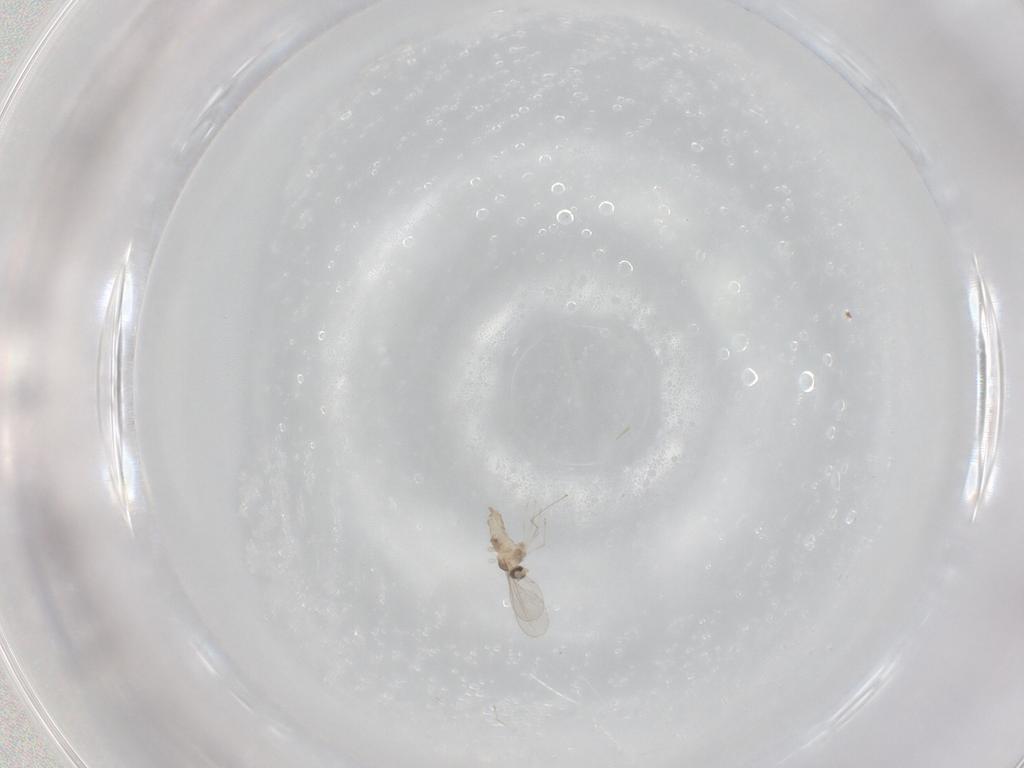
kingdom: Animalia
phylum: Arthropoda
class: Insecta
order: Diptera
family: Cecidomyiidae
